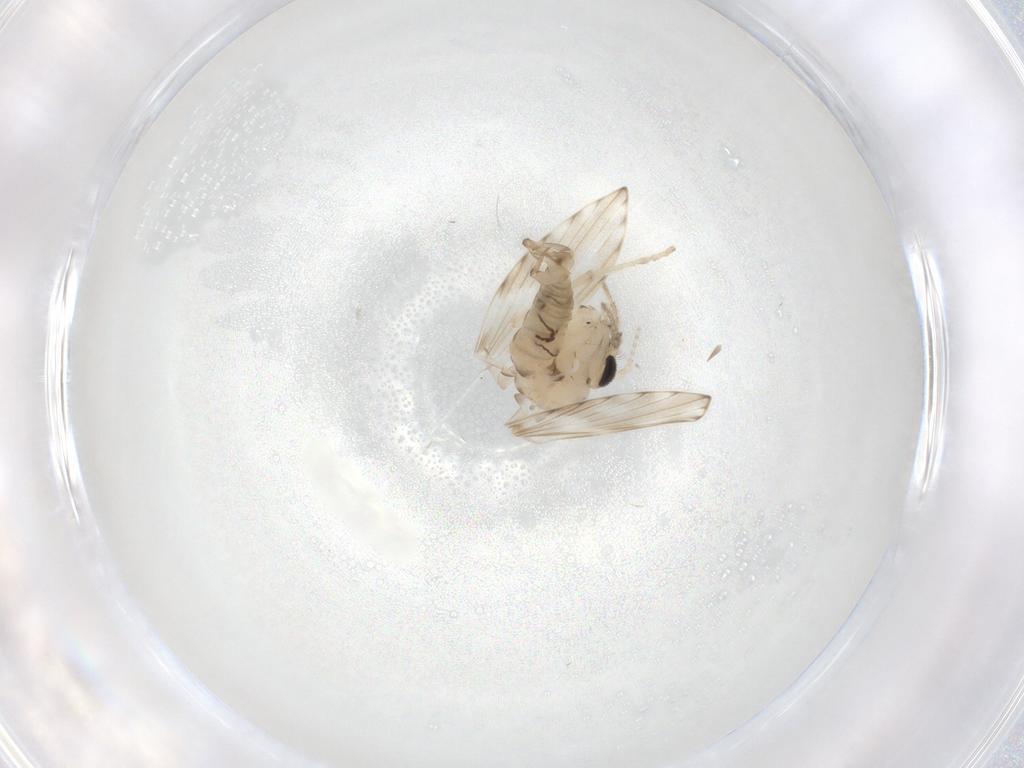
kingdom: Animalia
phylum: Arthropoda
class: Insecta
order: Diptera
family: Psychodidae
